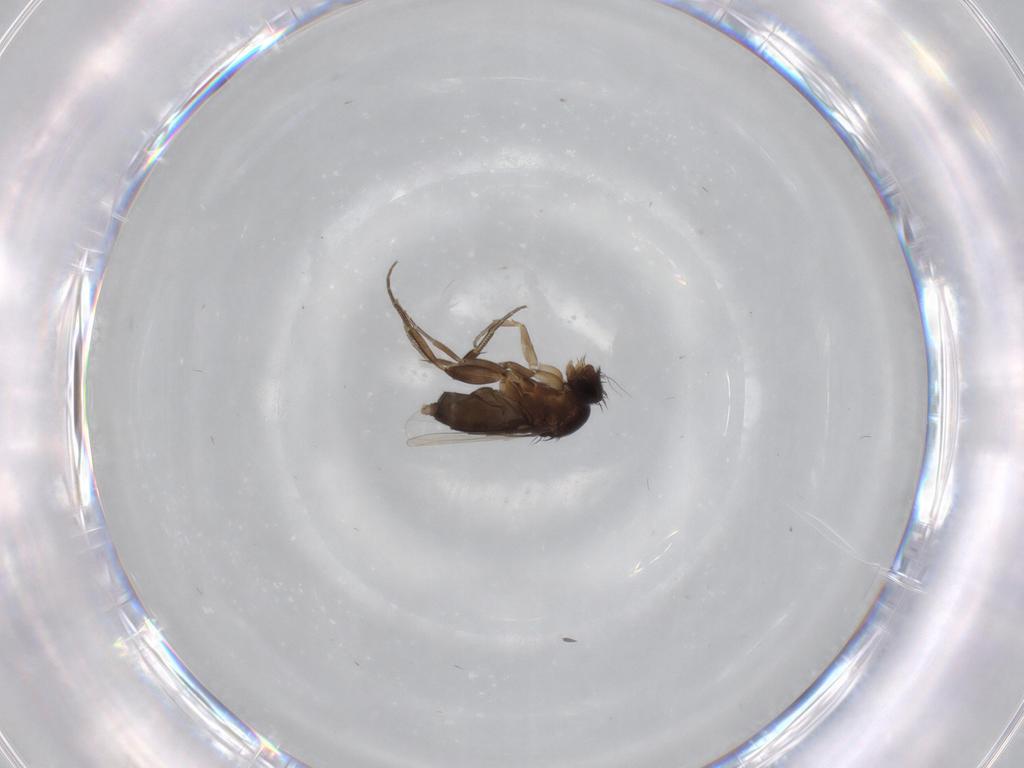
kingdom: Animalia
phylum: Arthropoda
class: Insecta
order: Diptera
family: Phoridae
